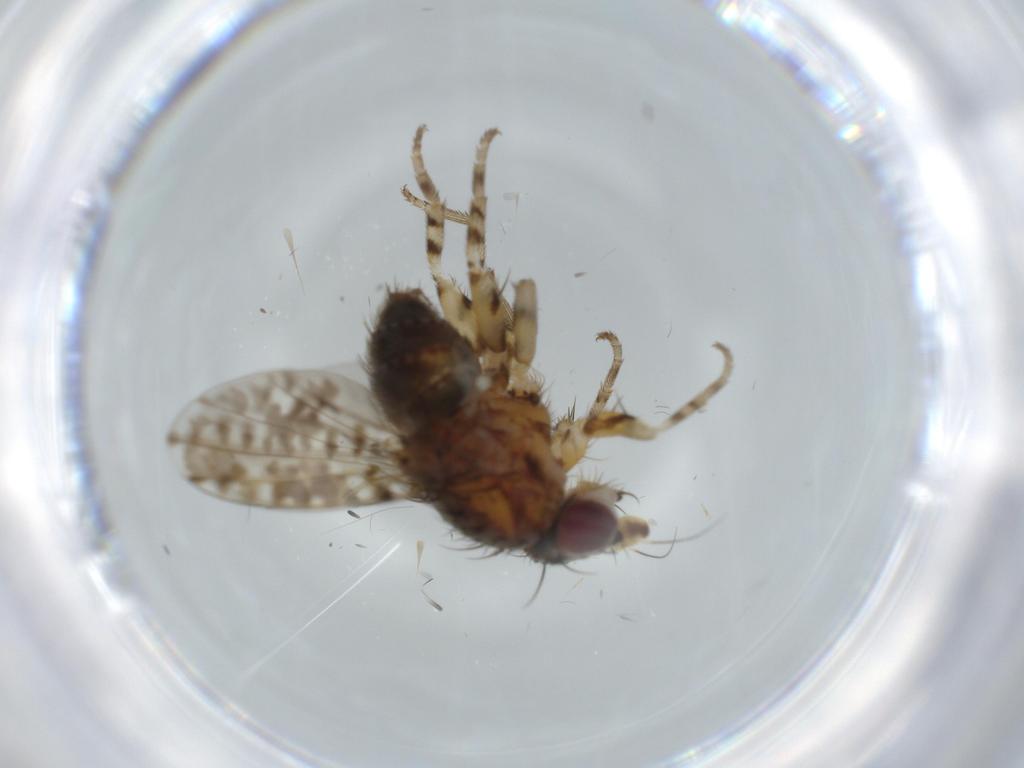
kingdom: Animalia
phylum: Arthropoda
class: Insecta
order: Diptera
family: Odiniidae
